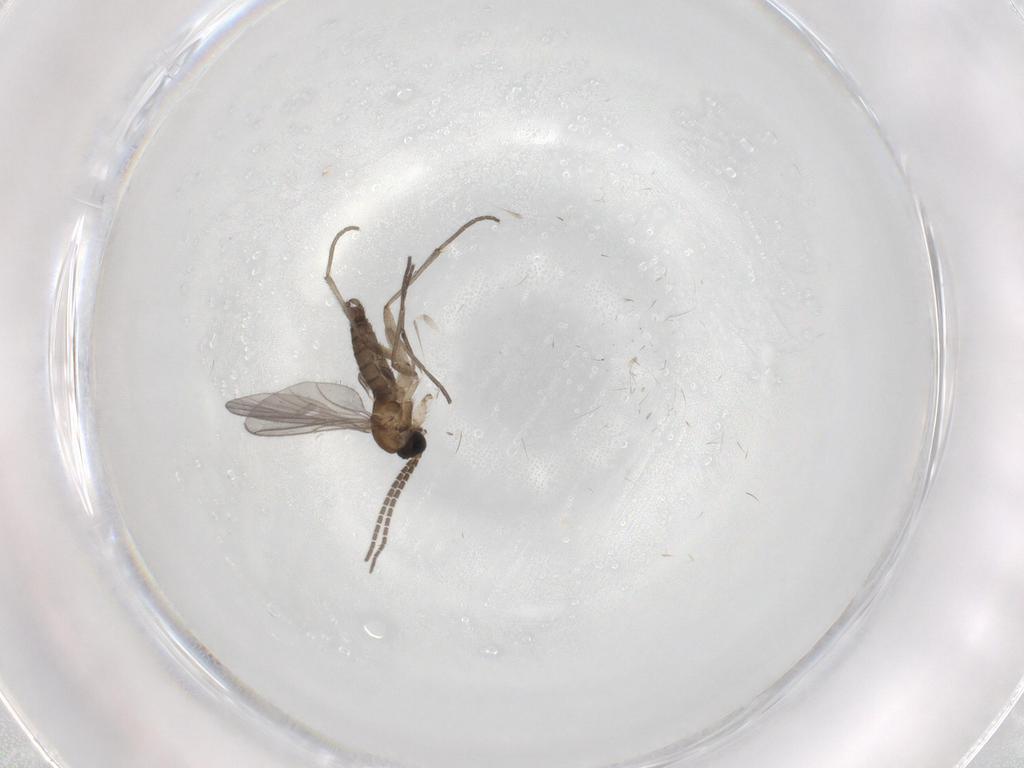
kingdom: Animalia
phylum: Arthropoda
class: Insecta
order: Diptera
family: Sciaridae
